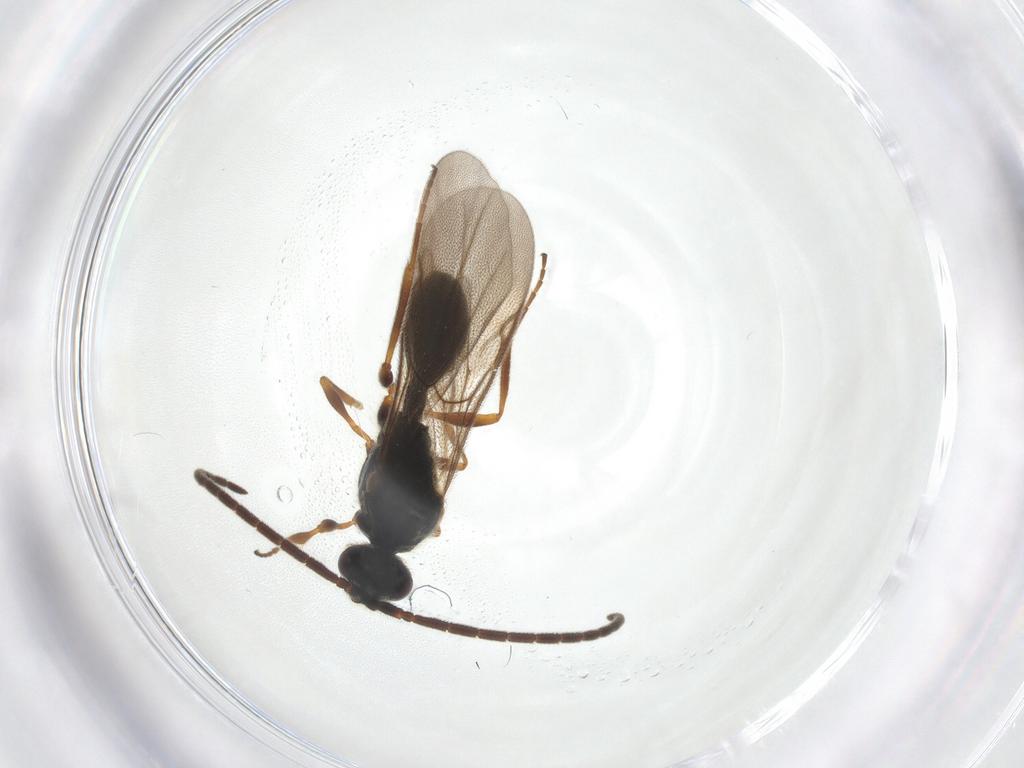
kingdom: Animalia
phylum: Arthropoda
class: Insecta
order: Hymenoptera
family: Diapriidae
